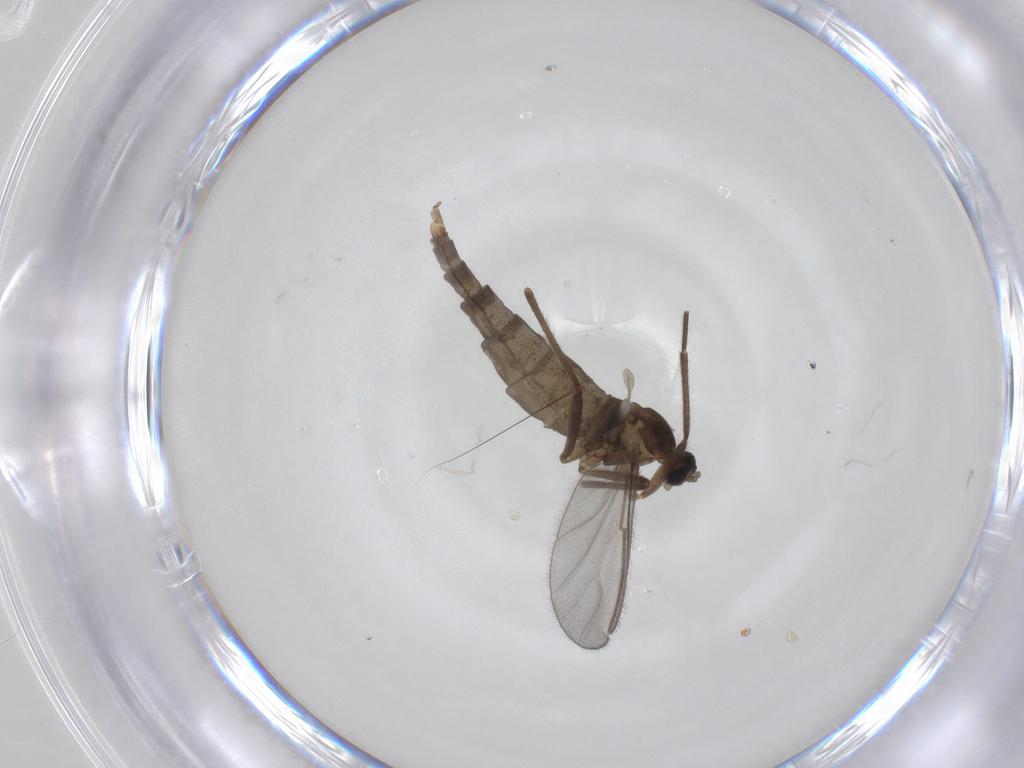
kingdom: Animalia
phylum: Arthropoda
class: Insecta
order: Diptera
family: Cecidomyiidae
